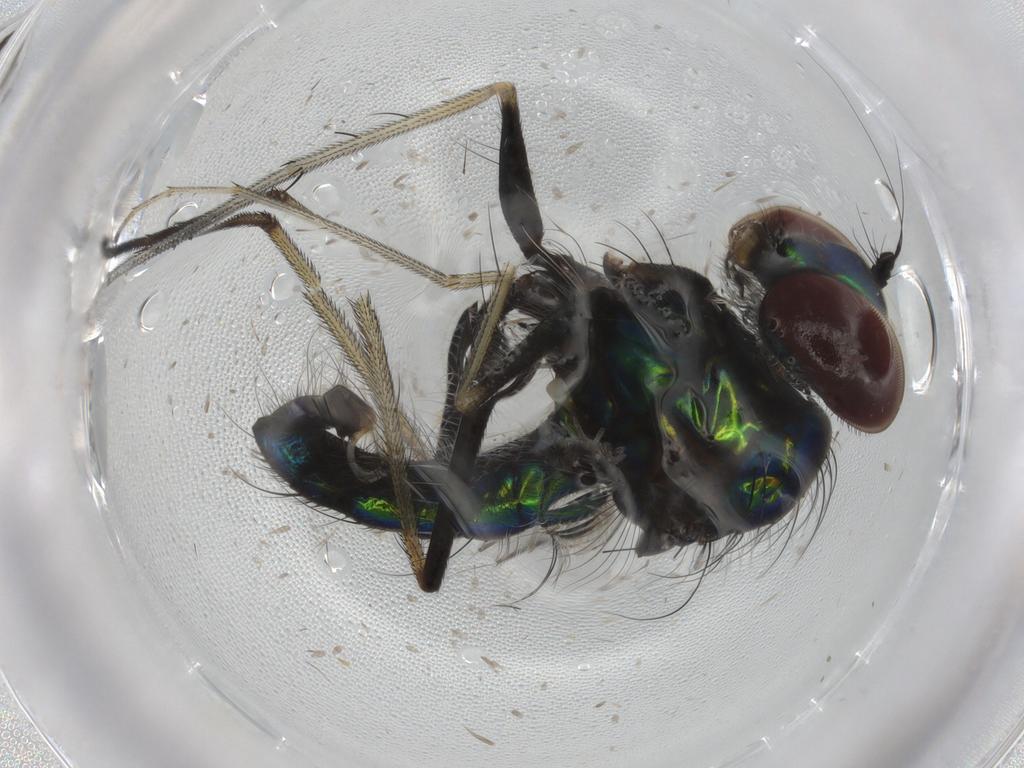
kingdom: Animalia
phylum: Arthropoda
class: Insecta
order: Diptera
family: Dolichopodidae
